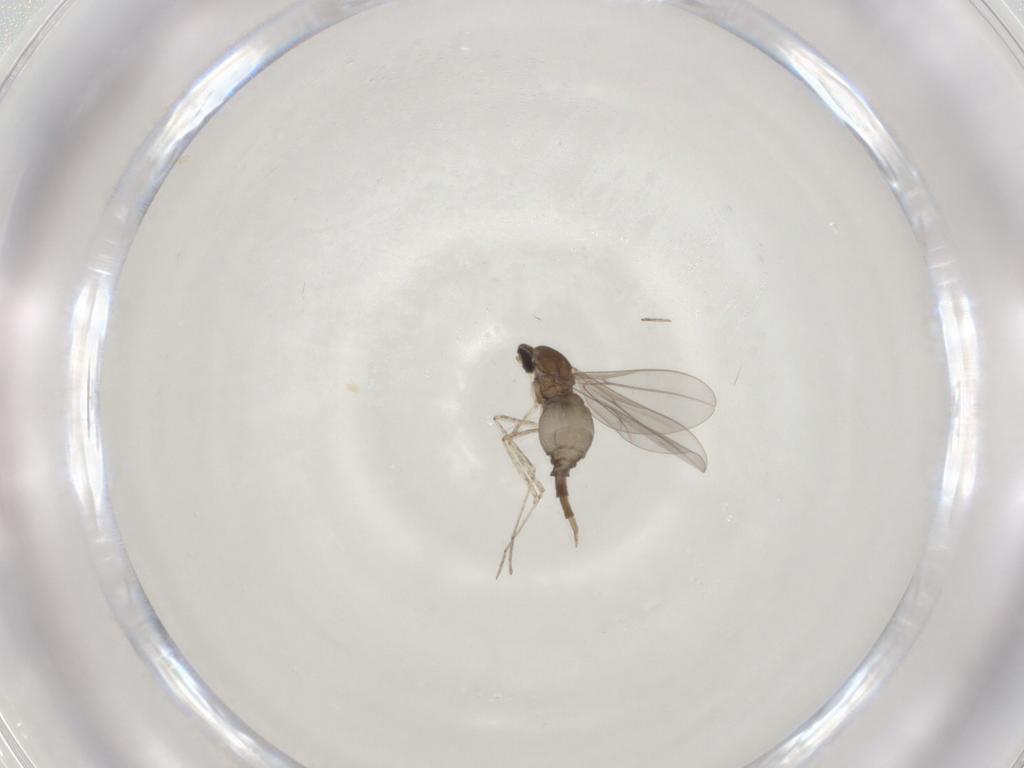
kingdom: Animalia
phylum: Arthropoda
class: Insecta
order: Diptera
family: Cecidomyiidae
